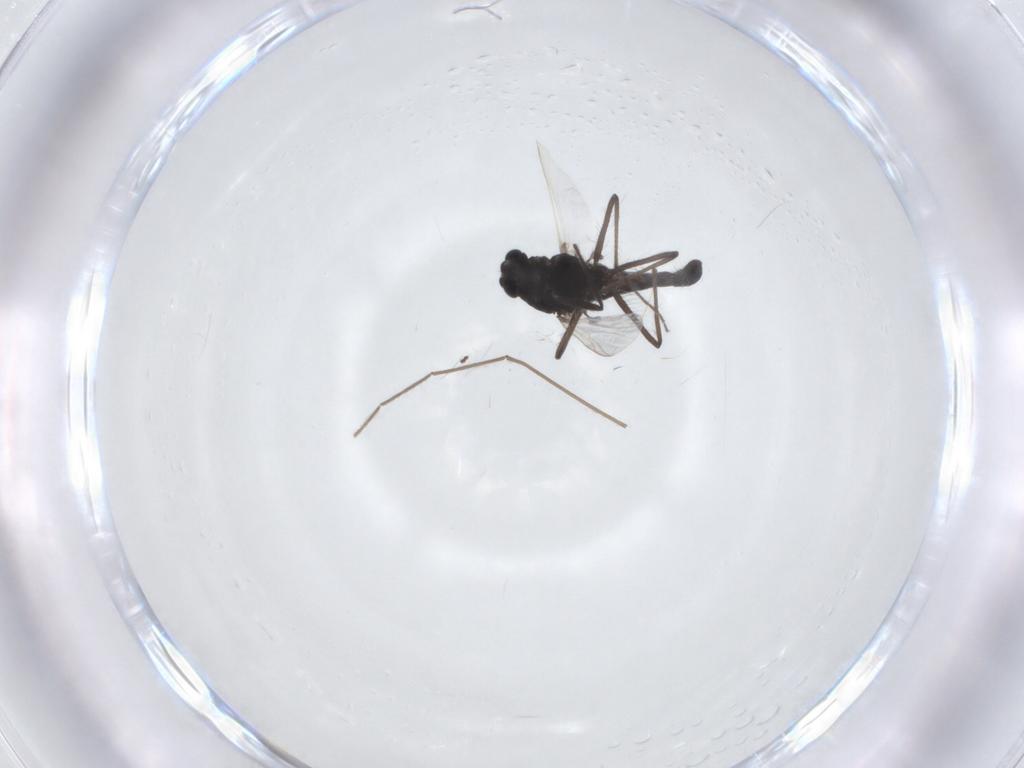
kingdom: Animalia
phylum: Arthropoda
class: Insecta
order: Diptera
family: Chironomidae
